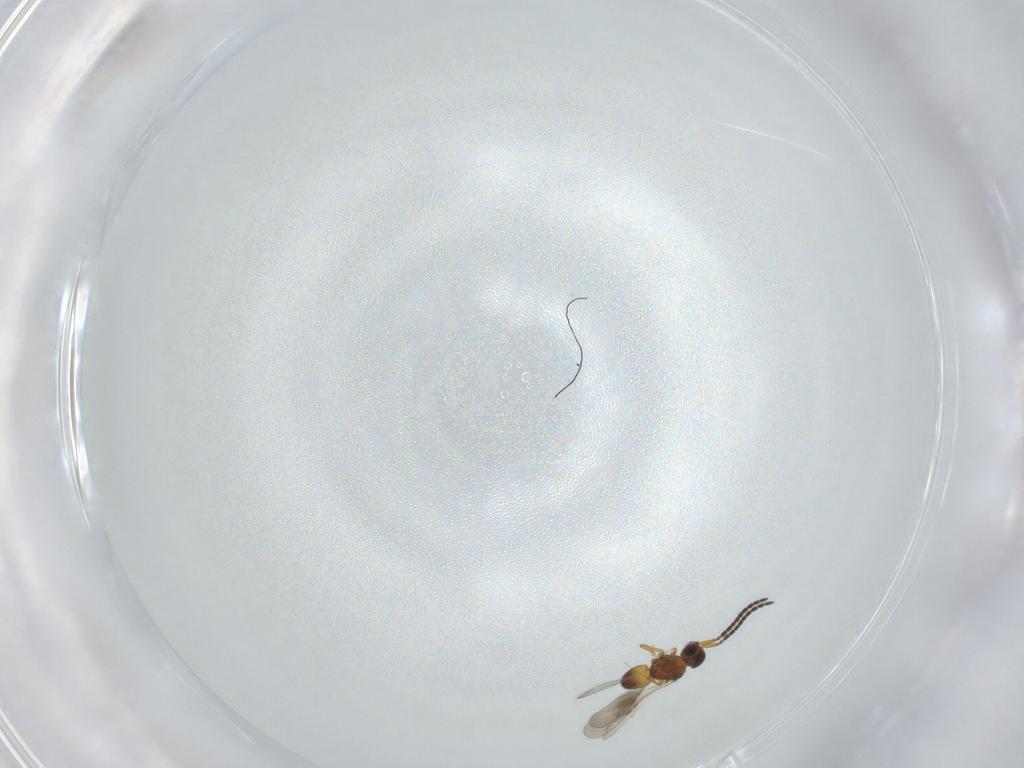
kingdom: Animalia
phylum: Arthropoda
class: Insecta
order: Hymenoptera
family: Ceraphronidae
